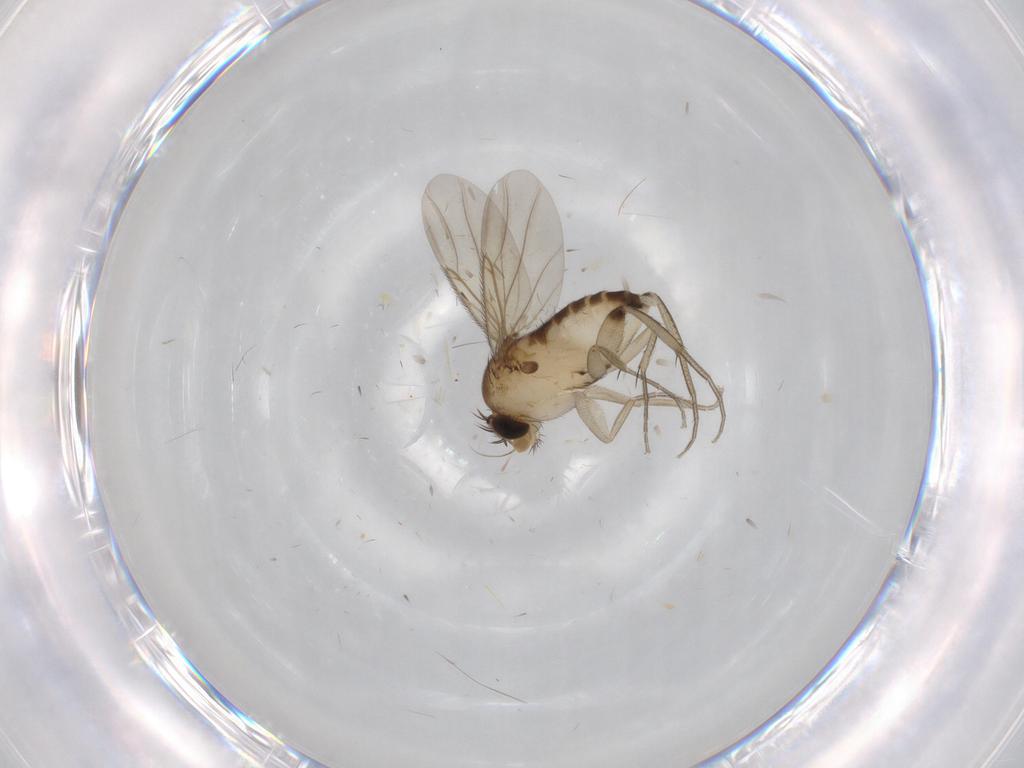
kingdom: Animalia
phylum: Arthropoda
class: Insecta
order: Diptera
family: Phoridae
